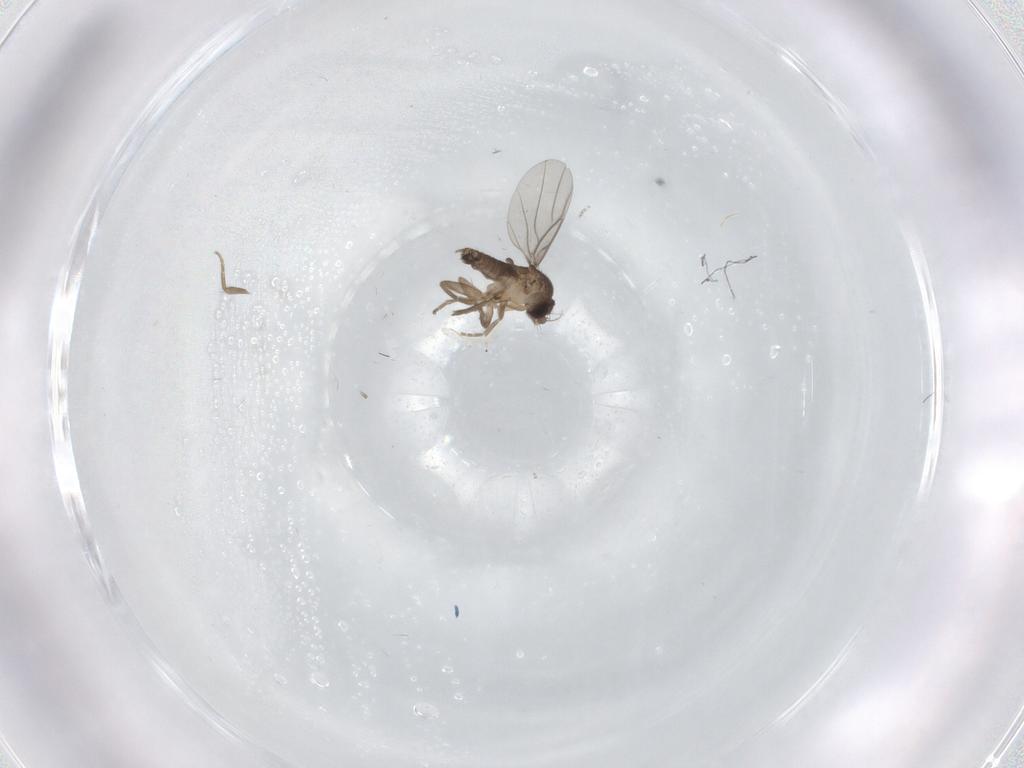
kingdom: Animalia
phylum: Arthropoda
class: Insecta
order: Diptera
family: Phoridae
